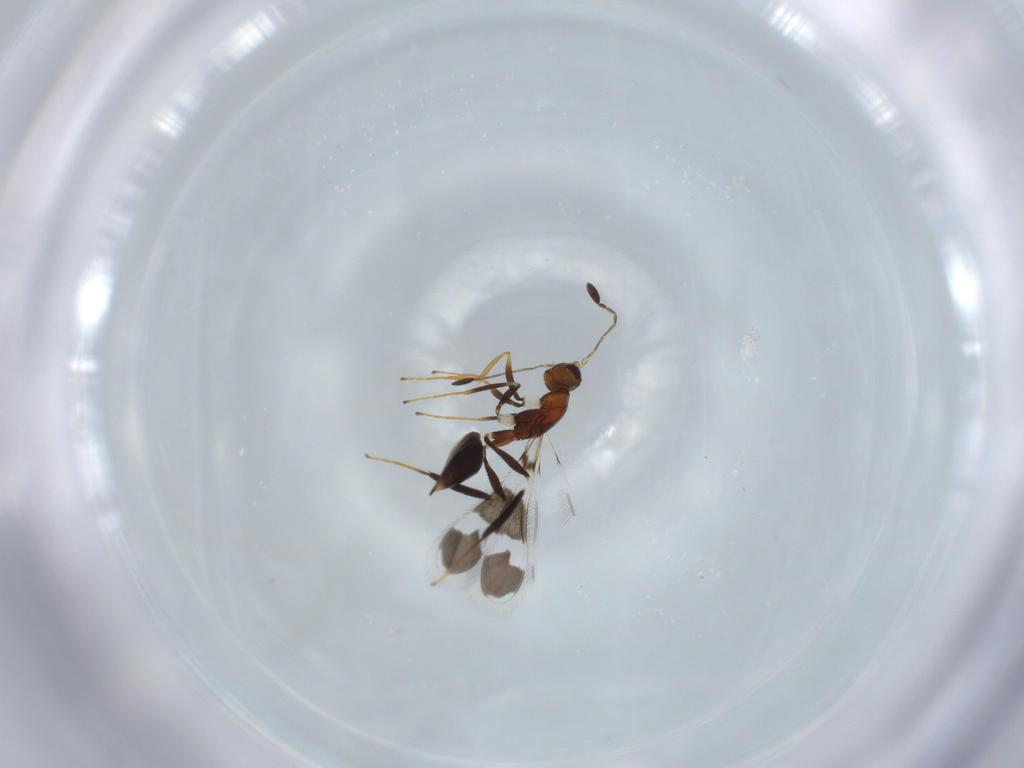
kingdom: Animalia
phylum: Arthropoda
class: Insecta
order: Hymenoptera
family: Mymaridae
